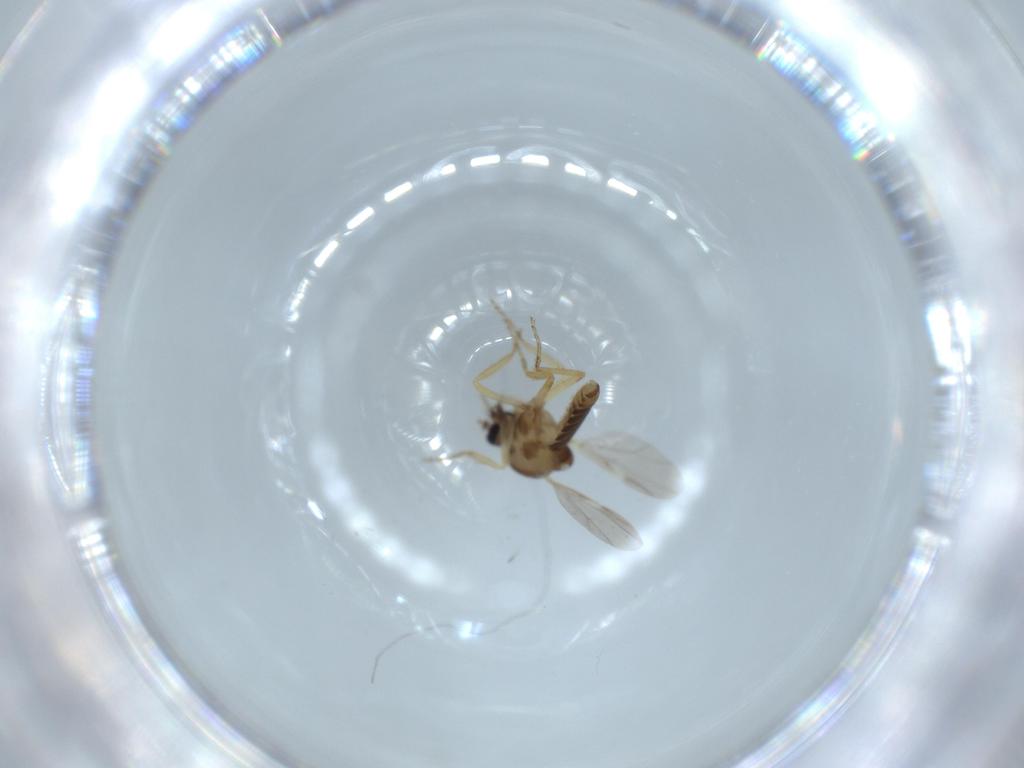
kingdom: Animalia
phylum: Arthropoda
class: Insecta
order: Diptera
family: Ceratopogonidae
